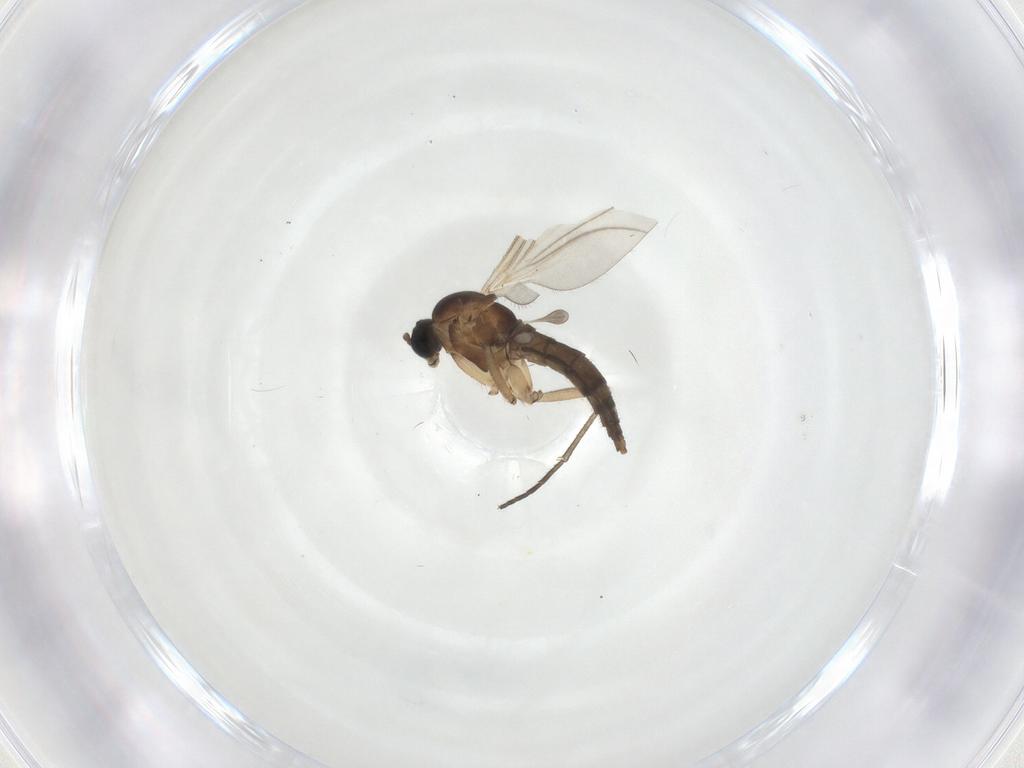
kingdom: Animalia
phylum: Arthropoda
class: Insecta
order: Diptera
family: Sciaridae
